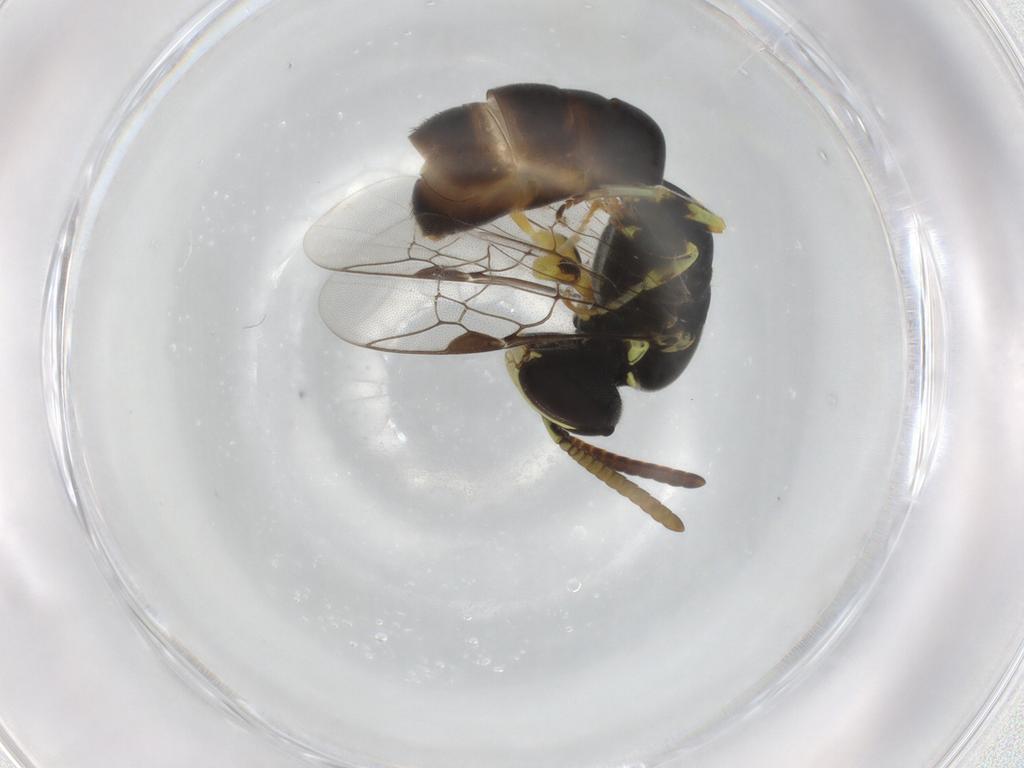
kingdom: Animalia
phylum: Arthropoda
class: Insecta
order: Hymenoptera
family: Colletidae
